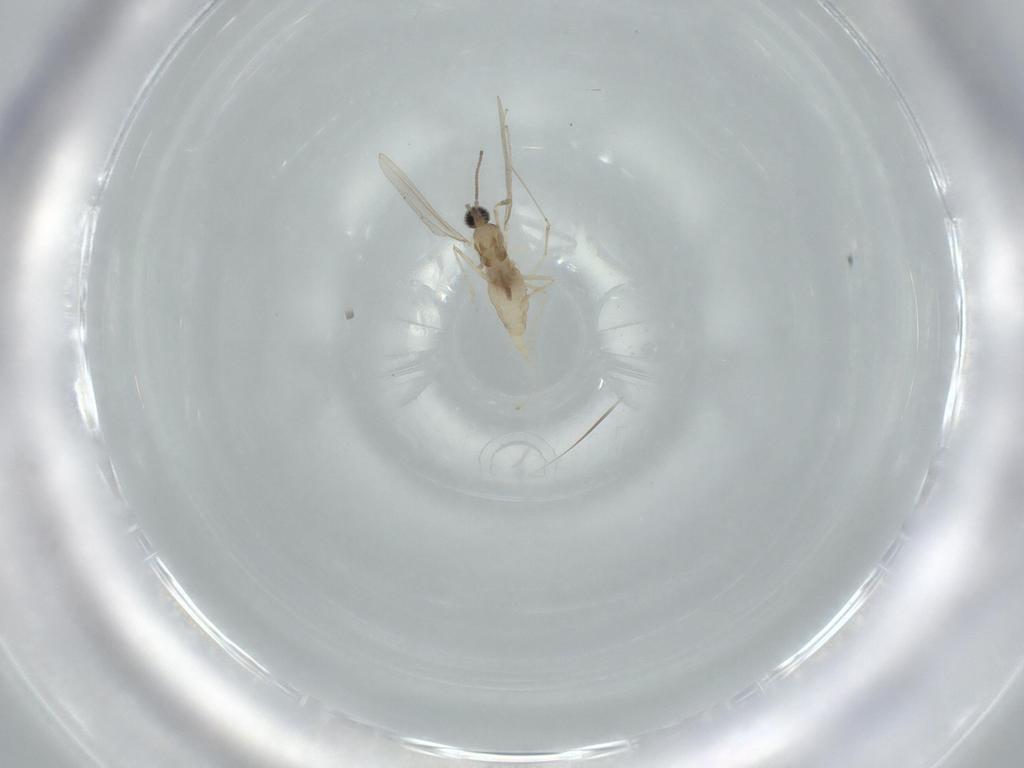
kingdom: Animalia
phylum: Arthropoda
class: Insecta
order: Diptera
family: Cecidomyiidae
